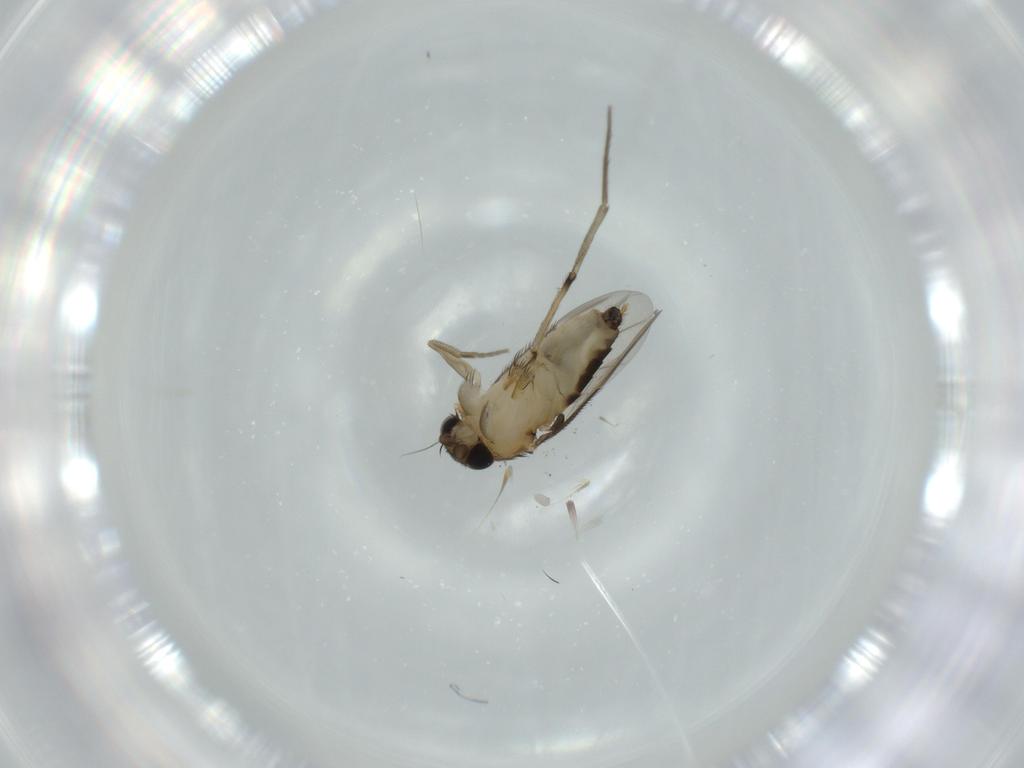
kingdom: Animalia
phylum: Arthropoda
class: Insecta
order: Diptera
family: Phoridae
